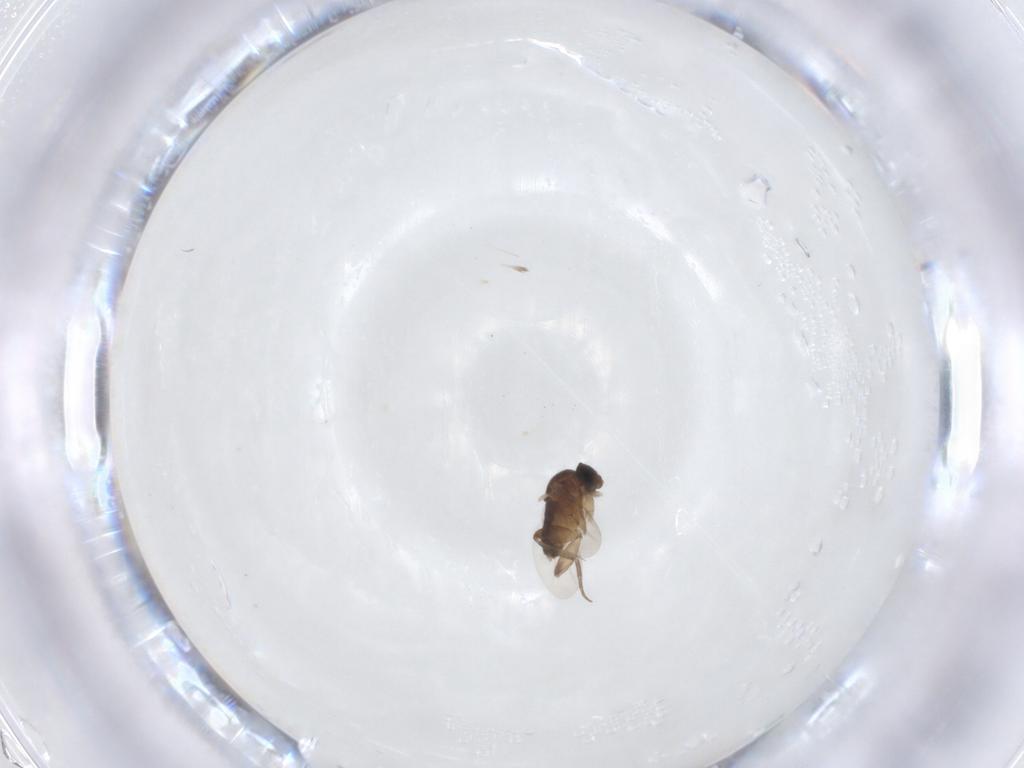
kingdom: Animalia
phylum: Arthropoda
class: Insecta
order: Diptera
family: Phoridae
